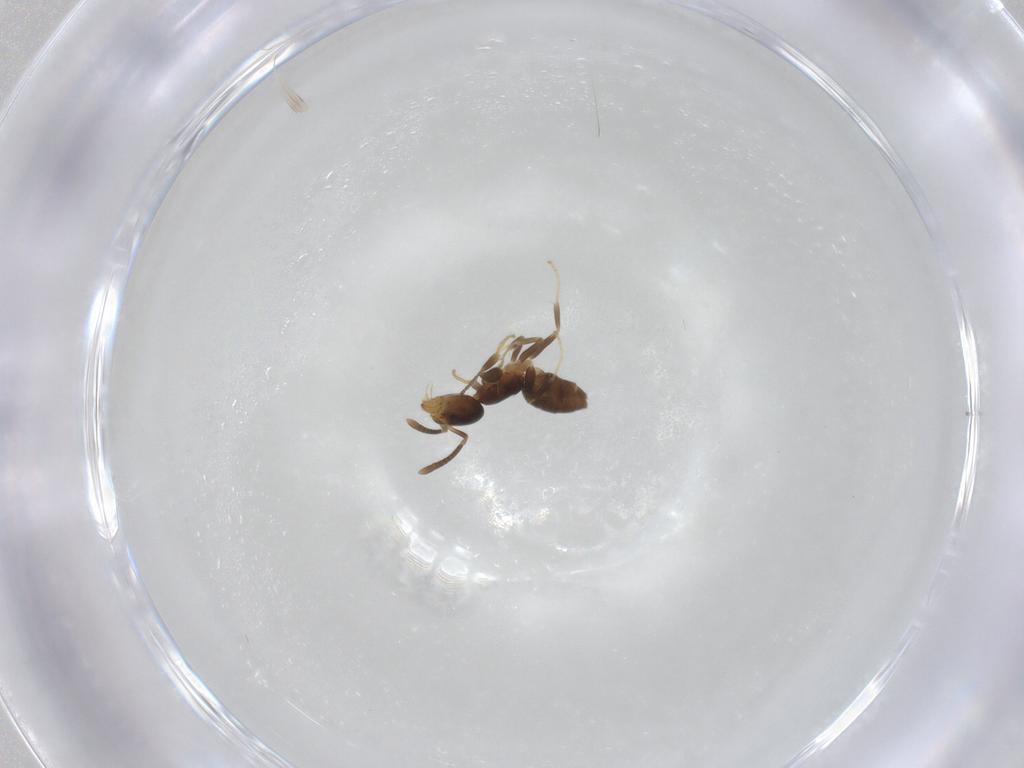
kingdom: Animalia
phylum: Arthropoda
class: Insecta
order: Hymenoptera
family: Formicidae
